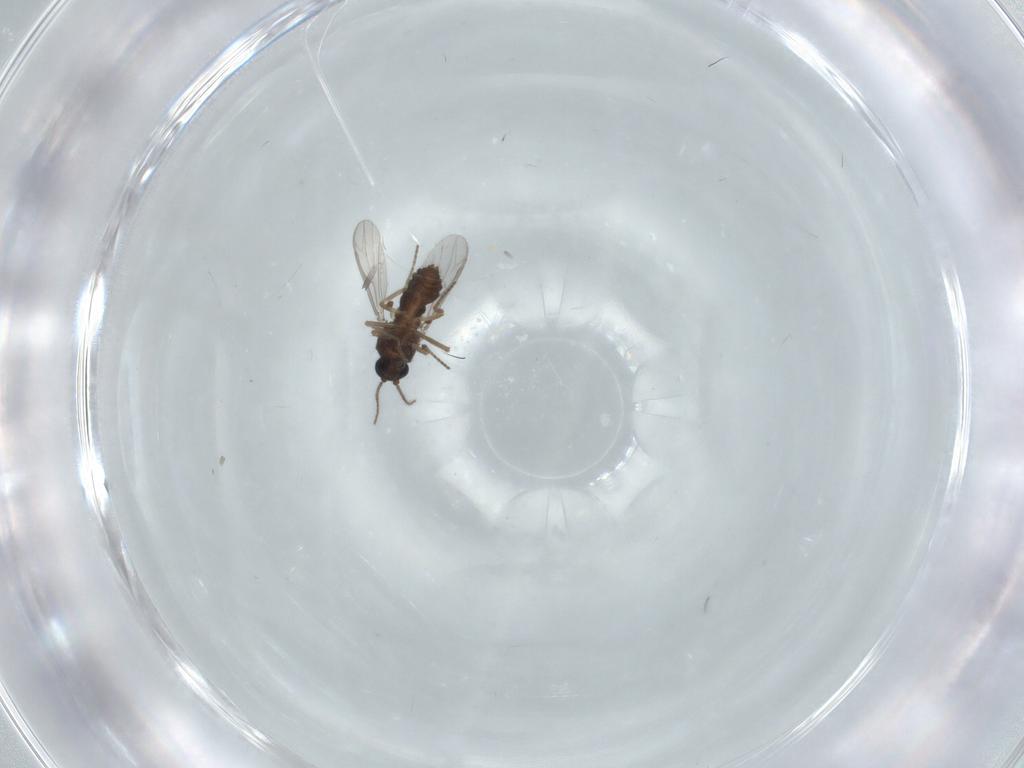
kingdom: Animalia
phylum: Arthropoda
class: Insecta
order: Diptera
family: Ceratopogonidae
